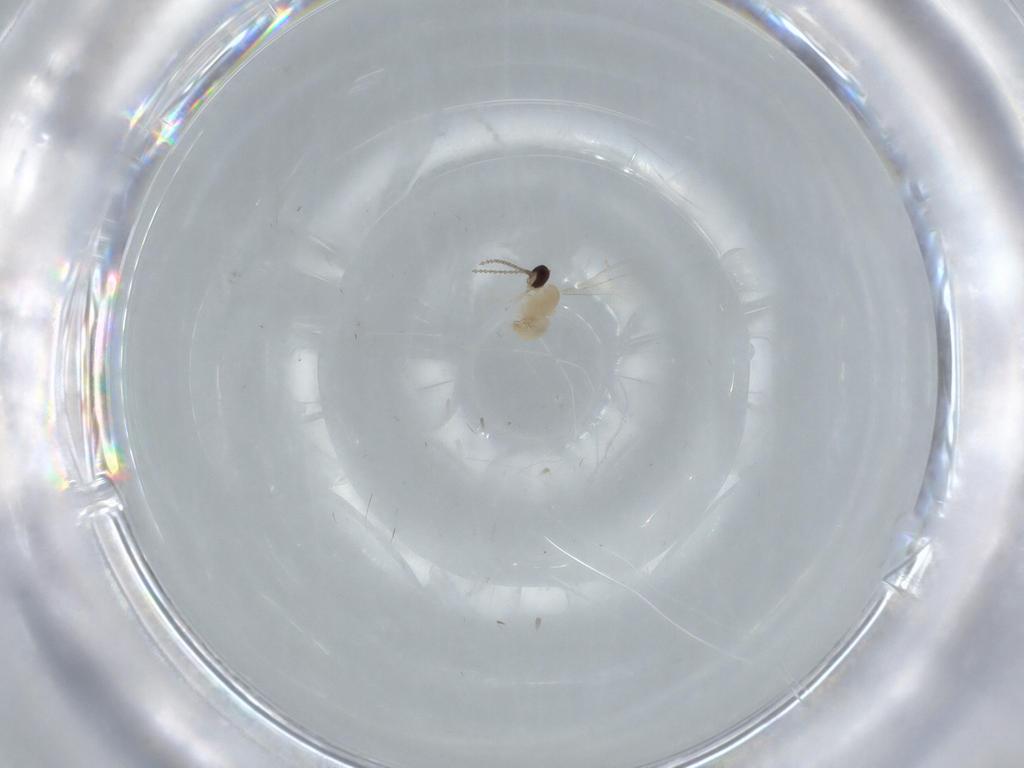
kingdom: Animalia
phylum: Arthropoda
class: Insecta
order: Diptera
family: Cecidomyiidae
